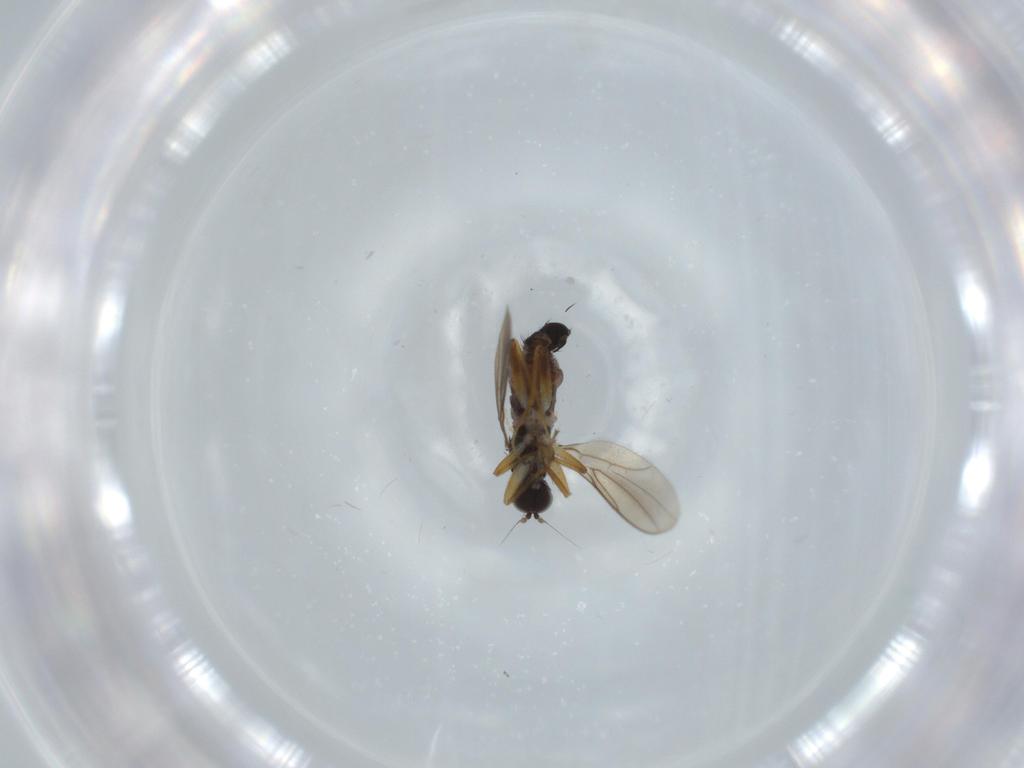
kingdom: Animalia
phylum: Arthropoda
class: Insecta
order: Diptera
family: Hybotidae
